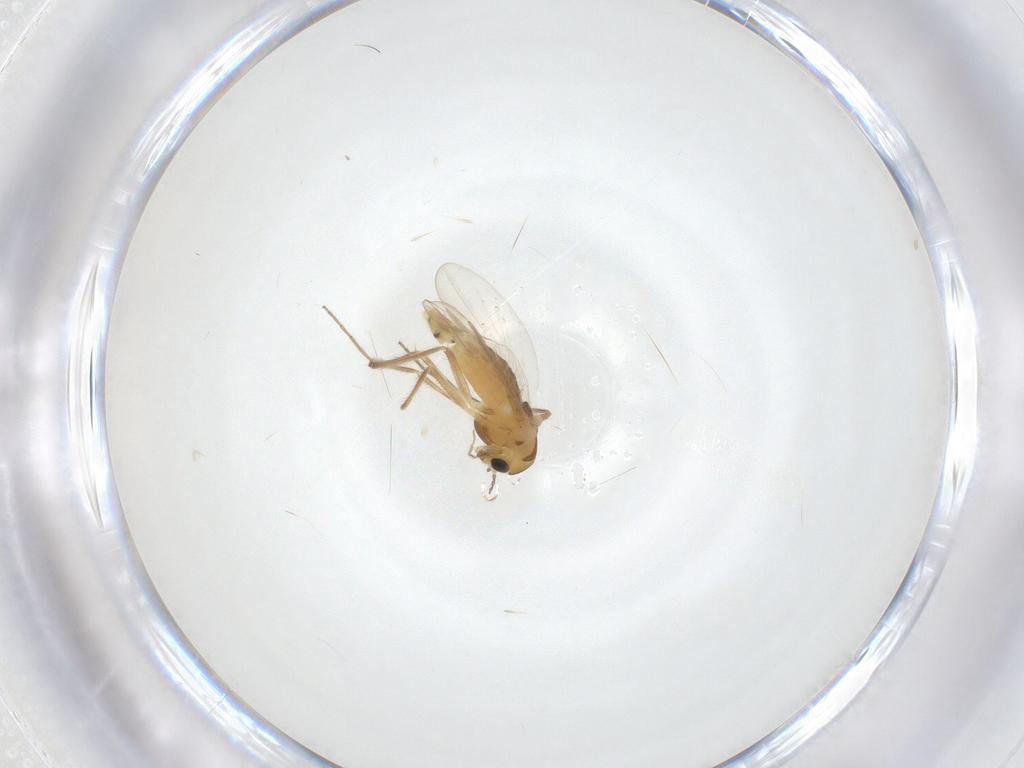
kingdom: Animalia
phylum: Arthropoda
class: Insecta
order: Diptera
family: Chironomidae
